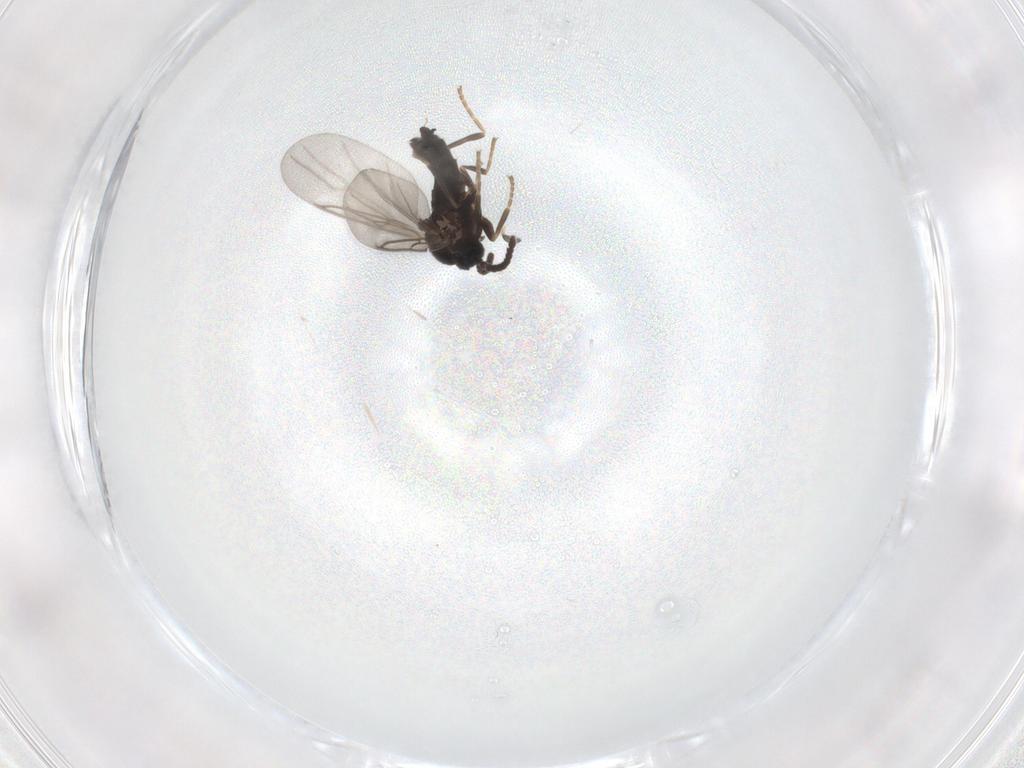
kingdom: Animalia
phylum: Arthropoda
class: Insecta
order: Diptera
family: Scatopsidae
